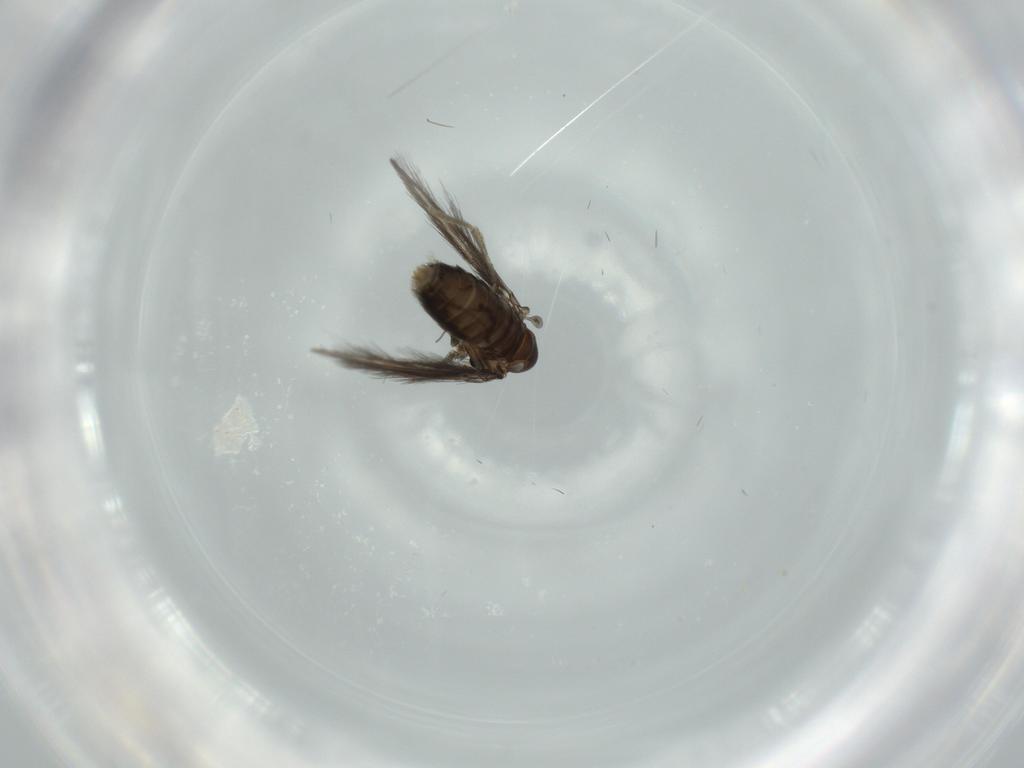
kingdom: Animalia
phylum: Arthropoda
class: Insecta
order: Diptera
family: Psychodidae
